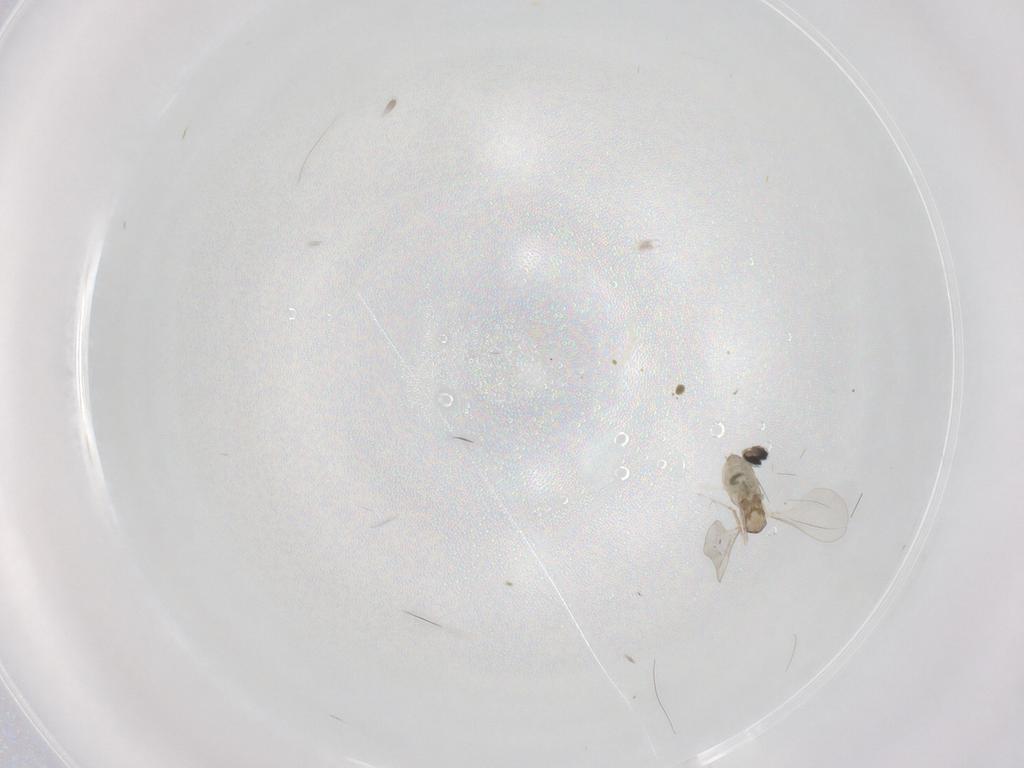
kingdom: Animalia
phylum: Arthropoda
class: Insecta
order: Diptera
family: Cecidomyiidae
